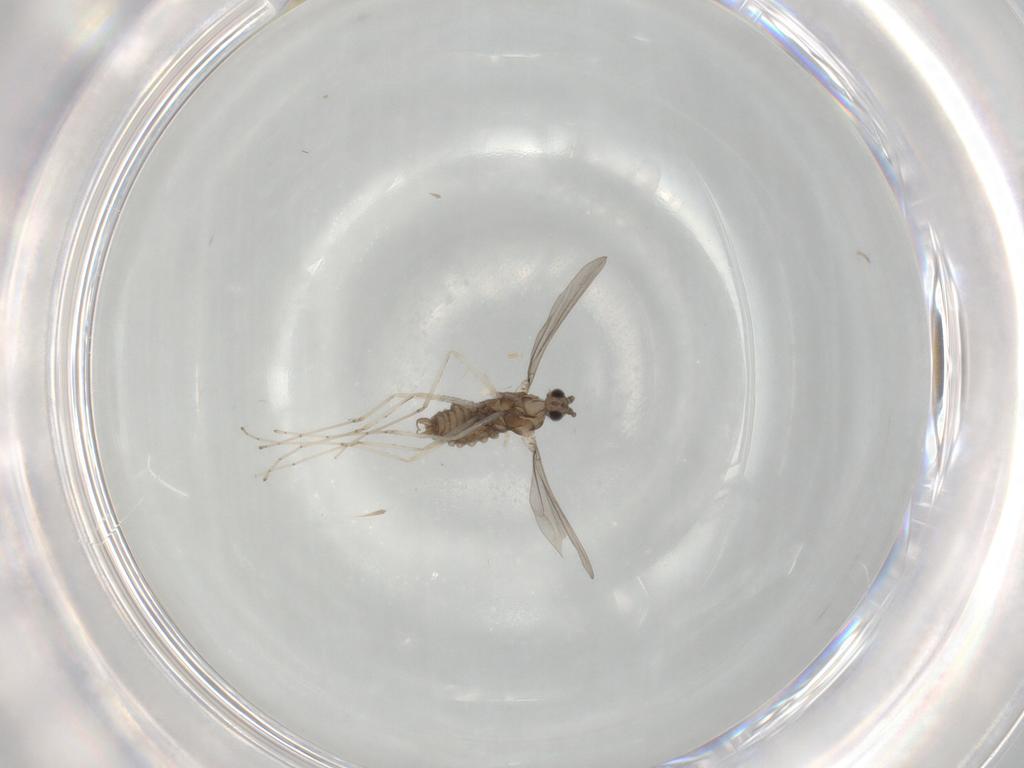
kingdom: Animalia
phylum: Arthropoda
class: Insecta
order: Diptera
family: Cecidomyiidae
